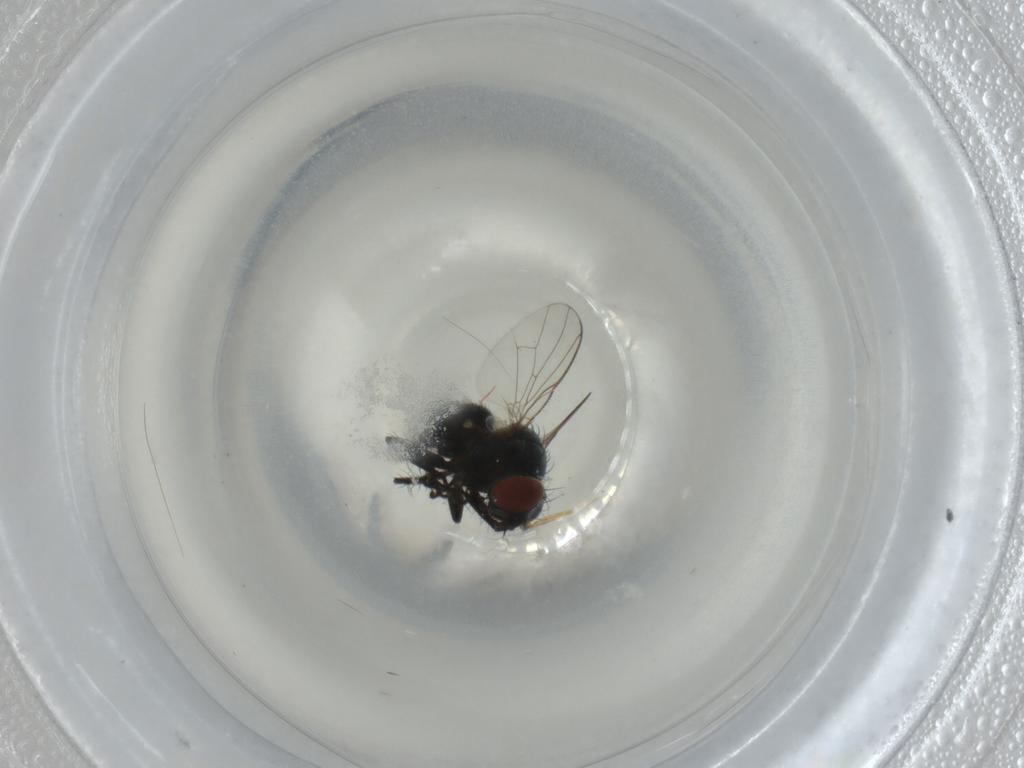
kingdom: Animalia
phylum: Arthropoda
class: Insecta
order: Diptera
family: Muscidae
